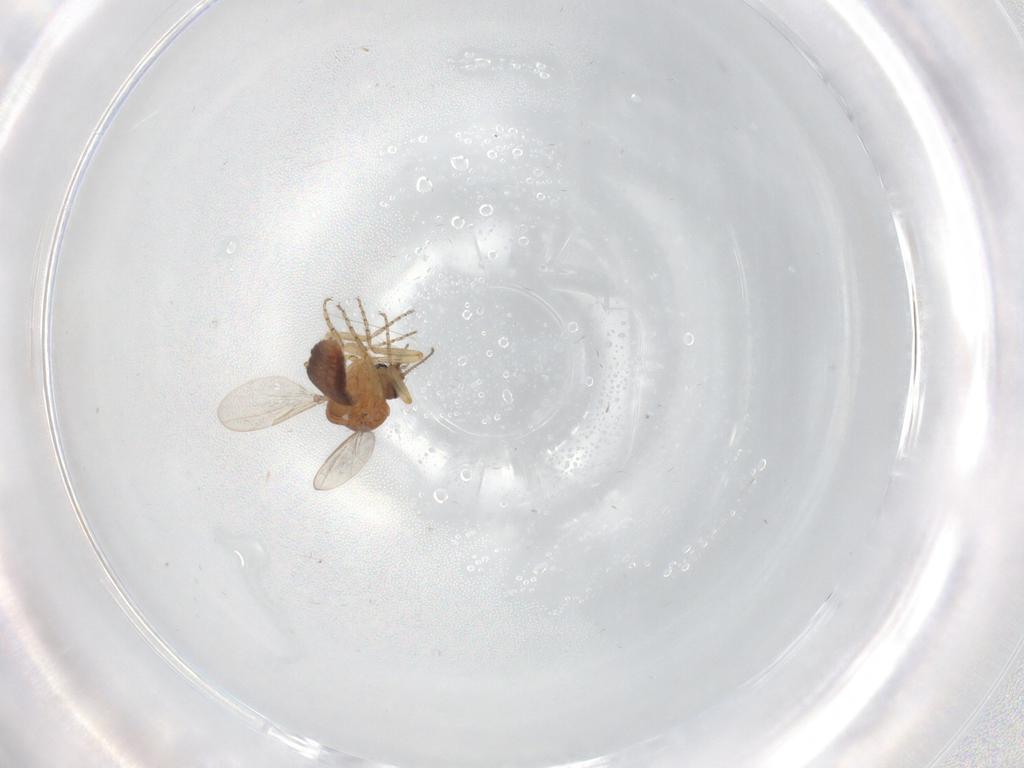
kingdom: Animalia
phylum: Arthropoda
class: Insecta
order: Diptera
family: Ceratopogonidae
